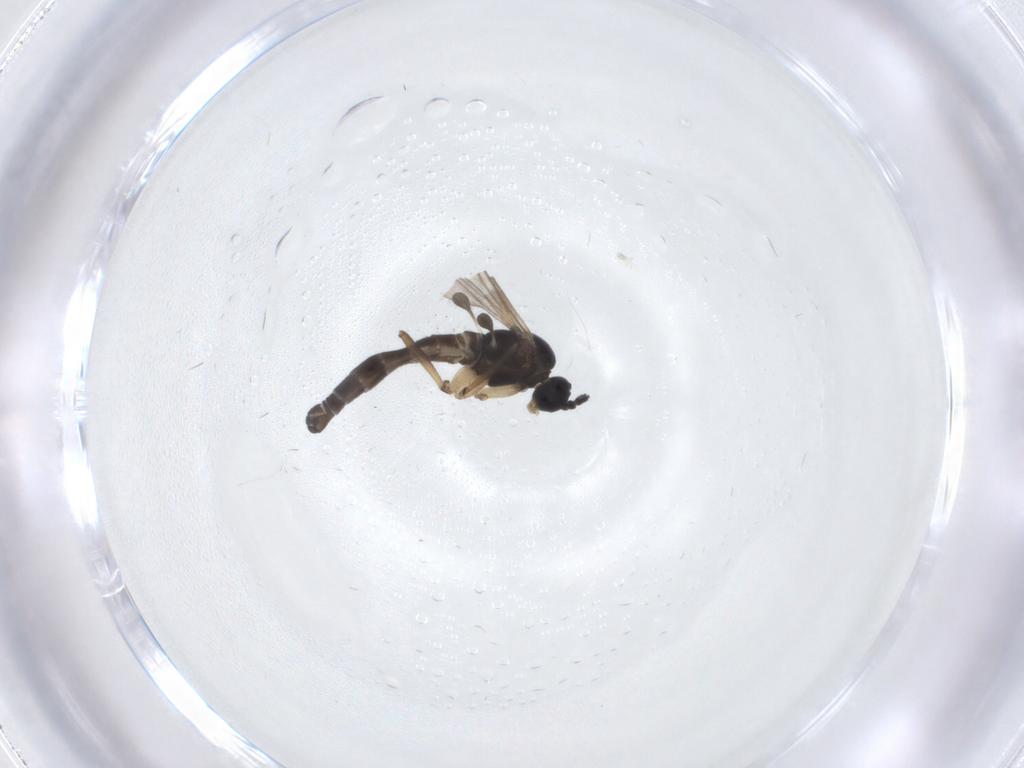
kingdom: Animalia
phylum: Arthropoda
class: Insecta
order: Diptera
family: Sciaridae
